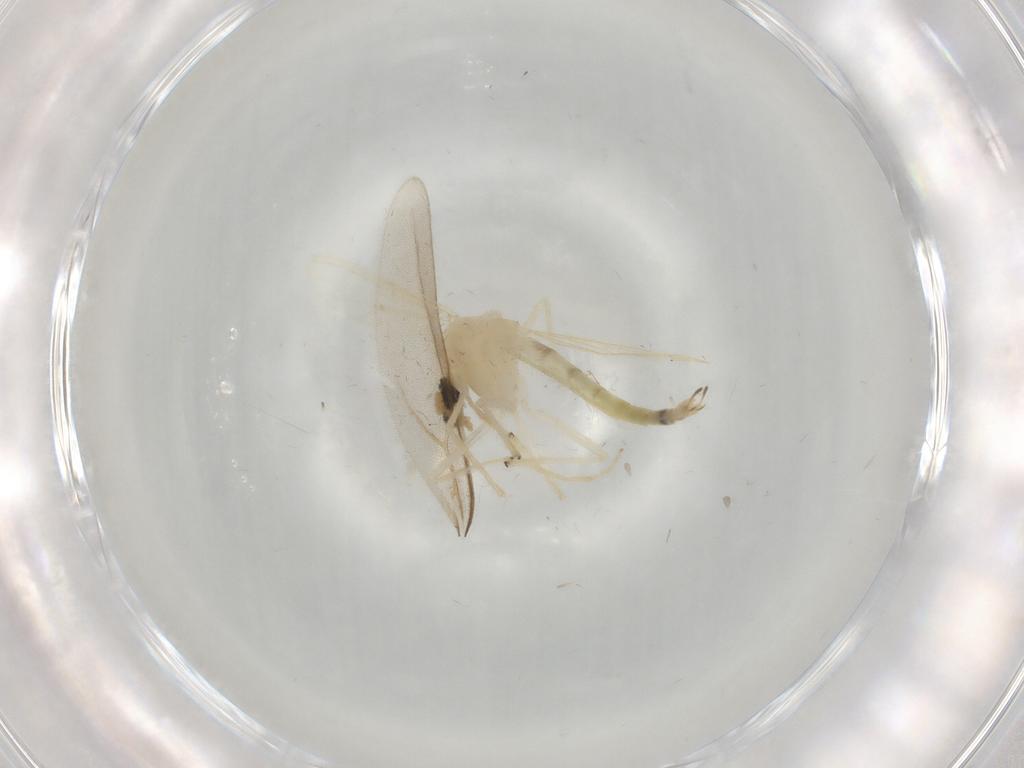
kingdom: Animalia
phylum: Arthropoda
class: Insecta
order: Diptera
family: Chironomidae
